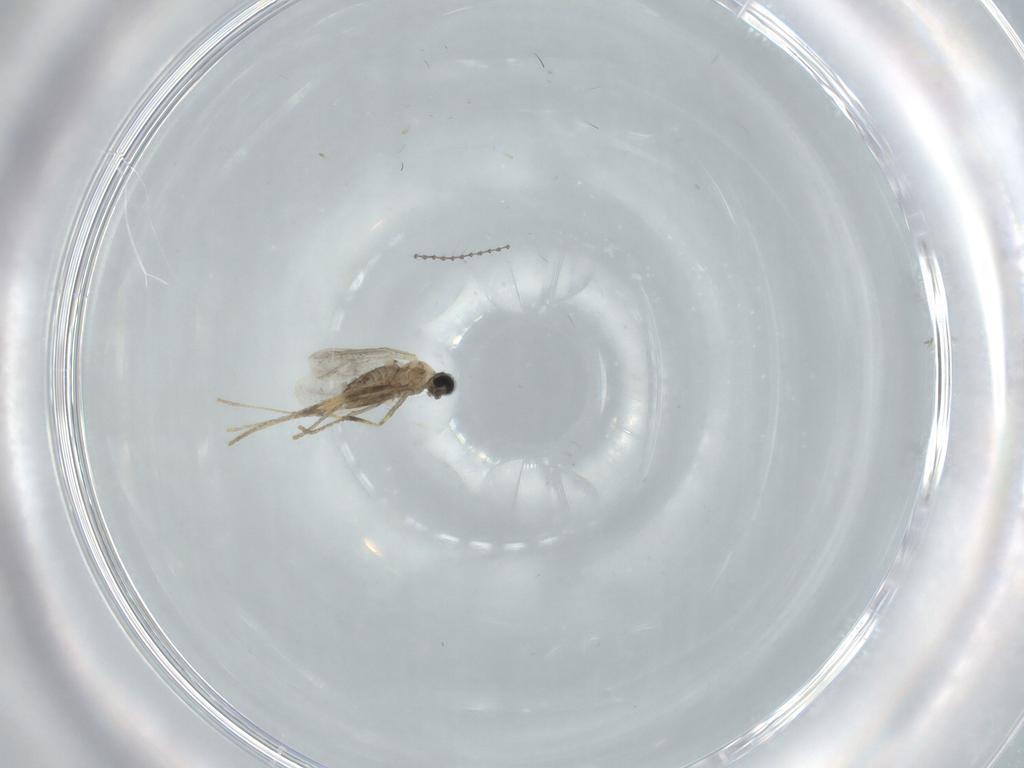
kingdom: Animalia
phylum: Arthropoda
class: Insecta
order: Diptera
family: Cecidomyiidae
